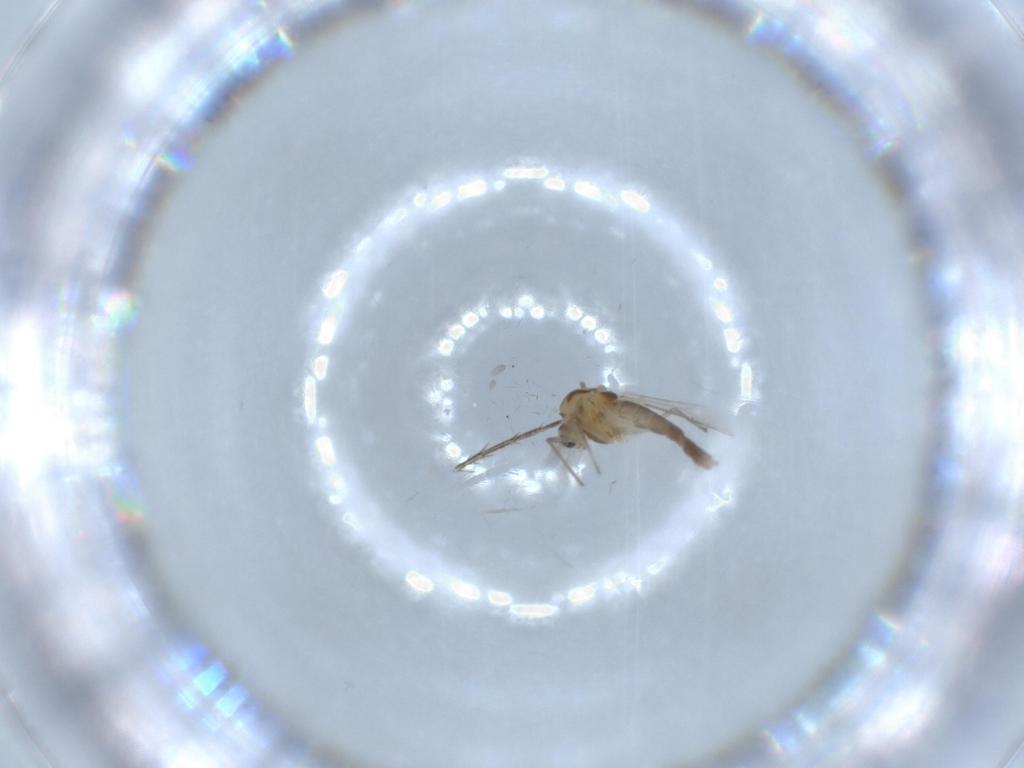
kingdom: Animalia
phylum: Arthropoda
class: Insecta
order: Diptera
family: Chironomidae
